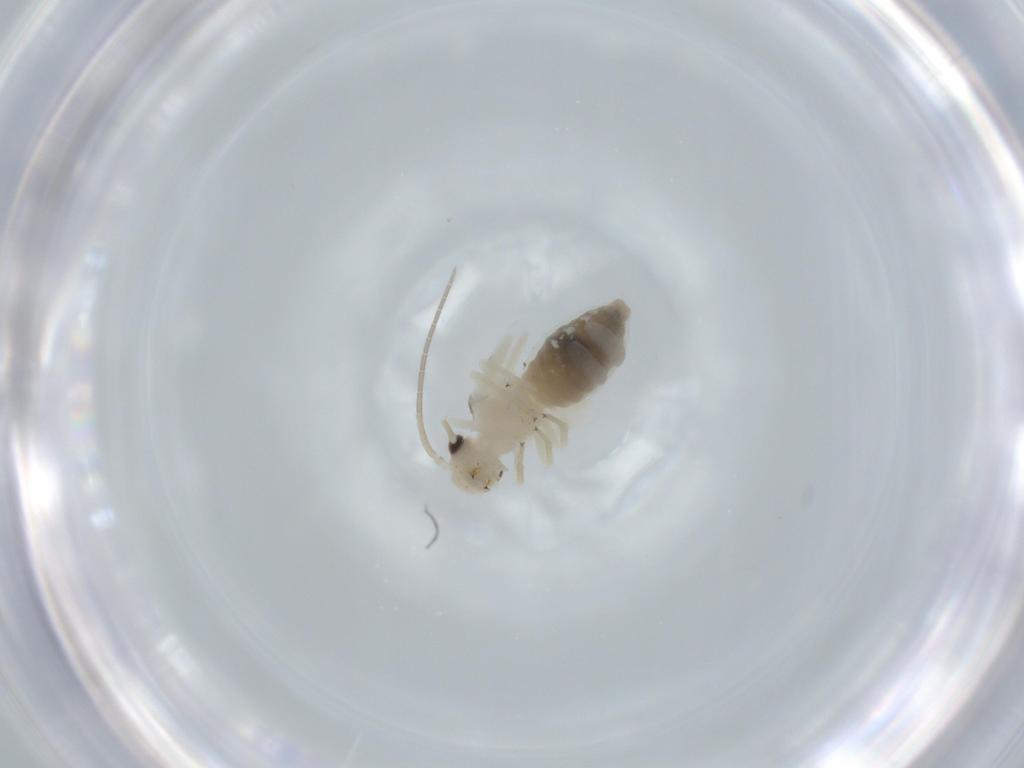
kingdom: Animalia
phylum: Arthropoda
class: Insecta
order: Psocodea
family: Caeciliusidae
